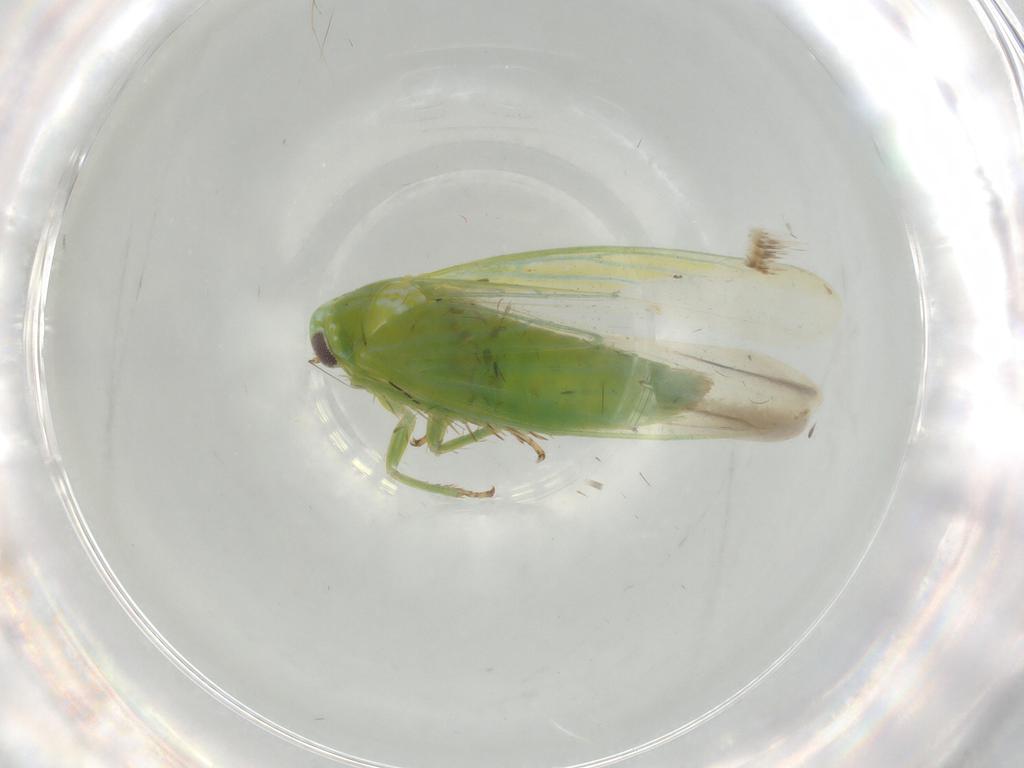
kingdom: Animalia
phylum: Arthropoda
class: Insecta
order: Hemiptera
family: Cicadellidae
